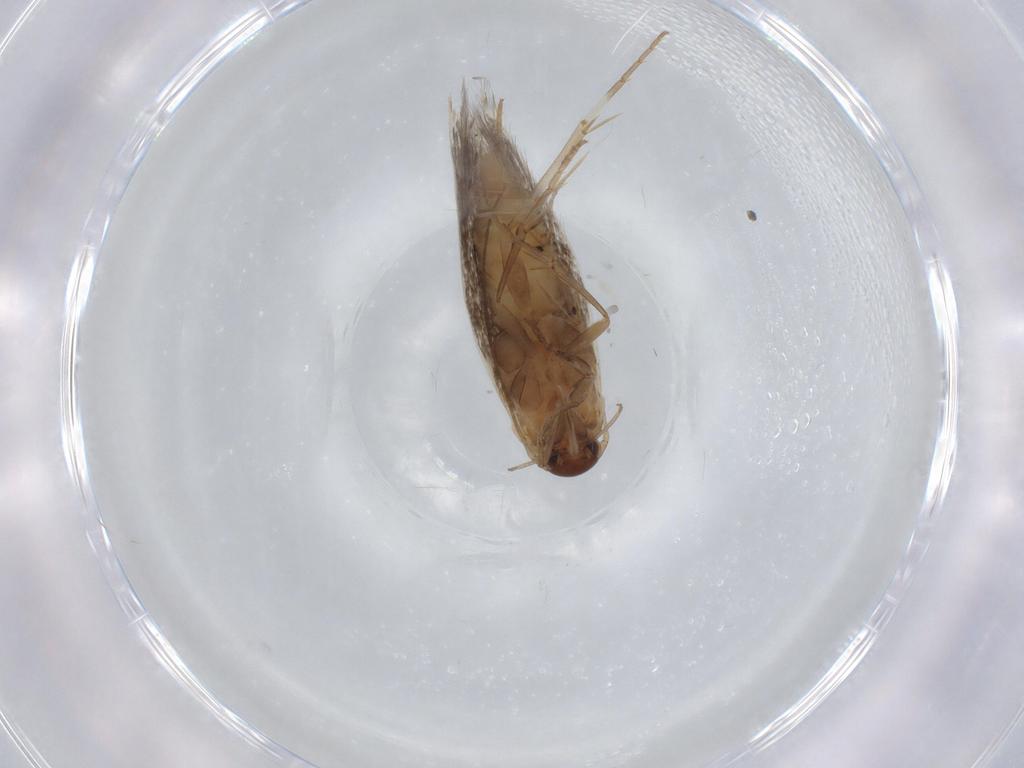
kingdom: Animalia
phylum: Arthropoda
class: Insecta
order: Lepidoptera
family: Elachistidae
